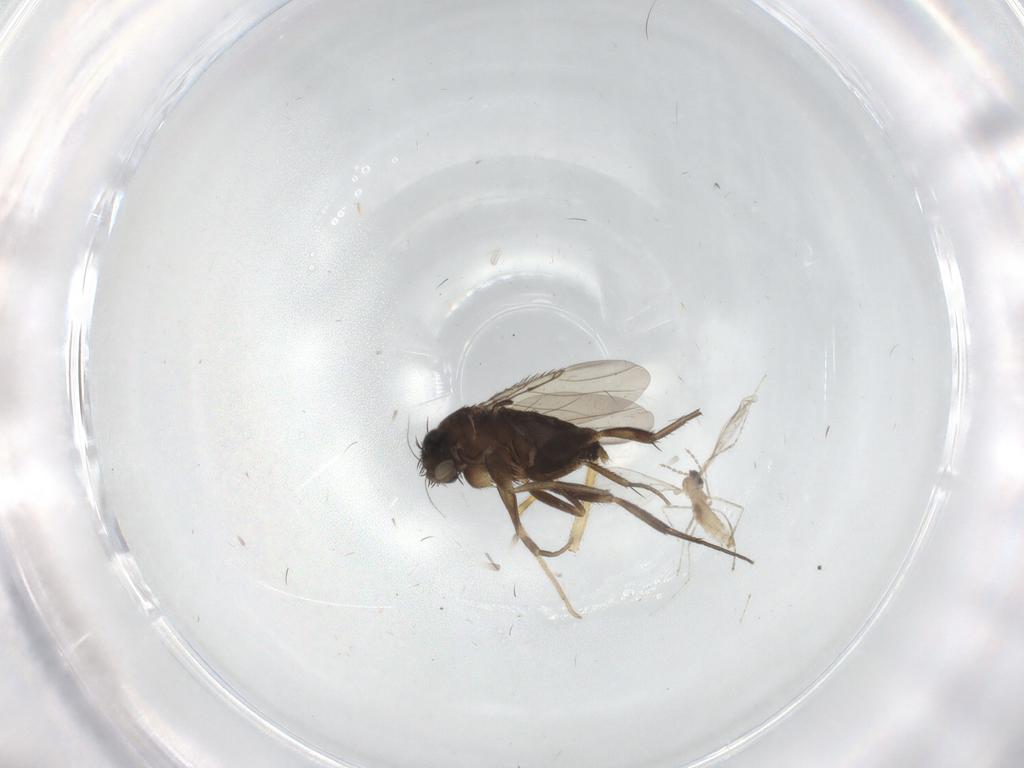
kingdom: Animalia
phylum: Arthropoda
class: Insecta
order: Diptera
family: Phoridae
